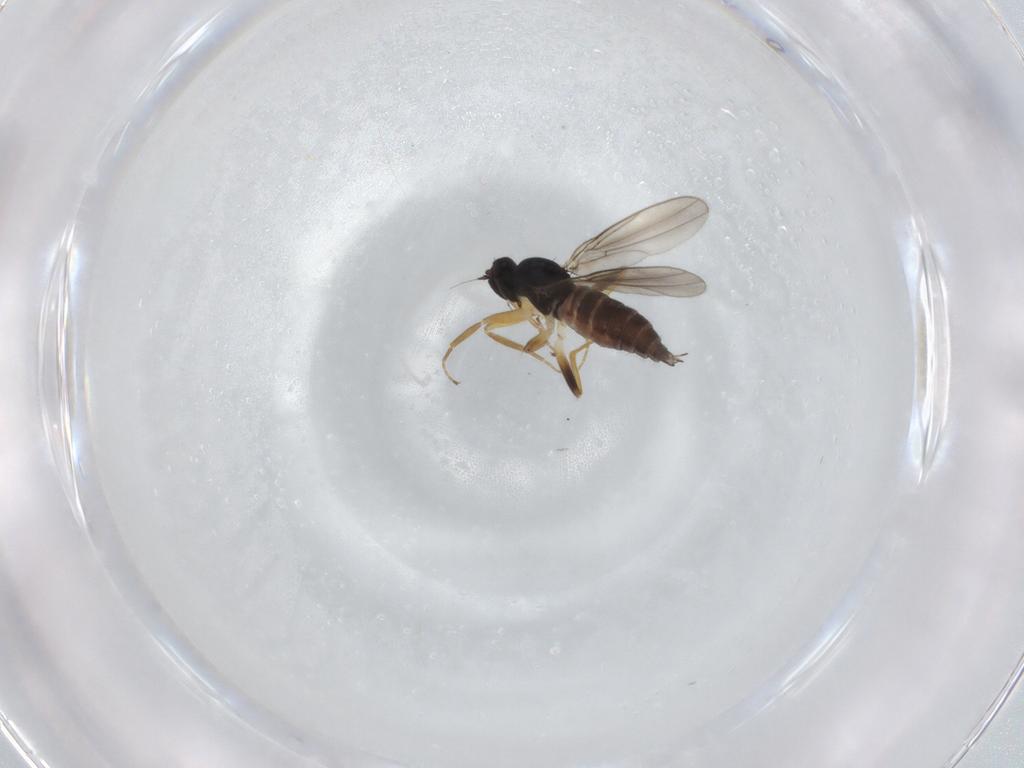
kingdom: Animalia
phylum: Arthropoda
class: Insecta
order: Diptera
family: Hybotidae
